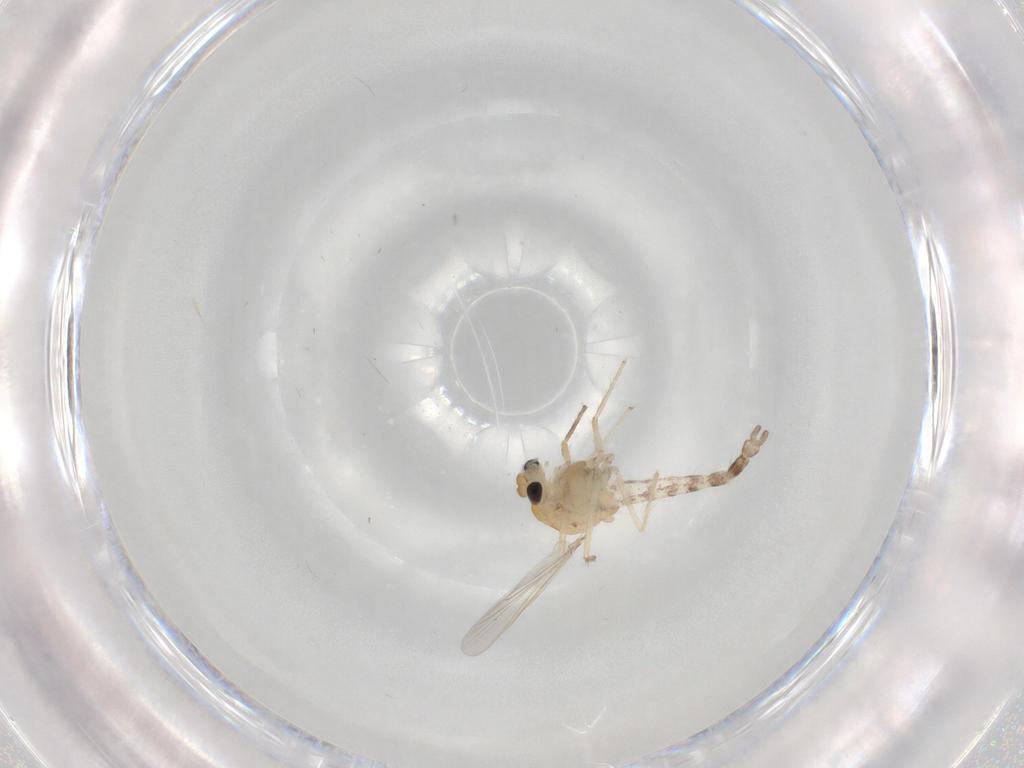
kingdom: Animalia
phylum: Arthropoda
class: Insecta
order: Diptera
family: Chironomidae
